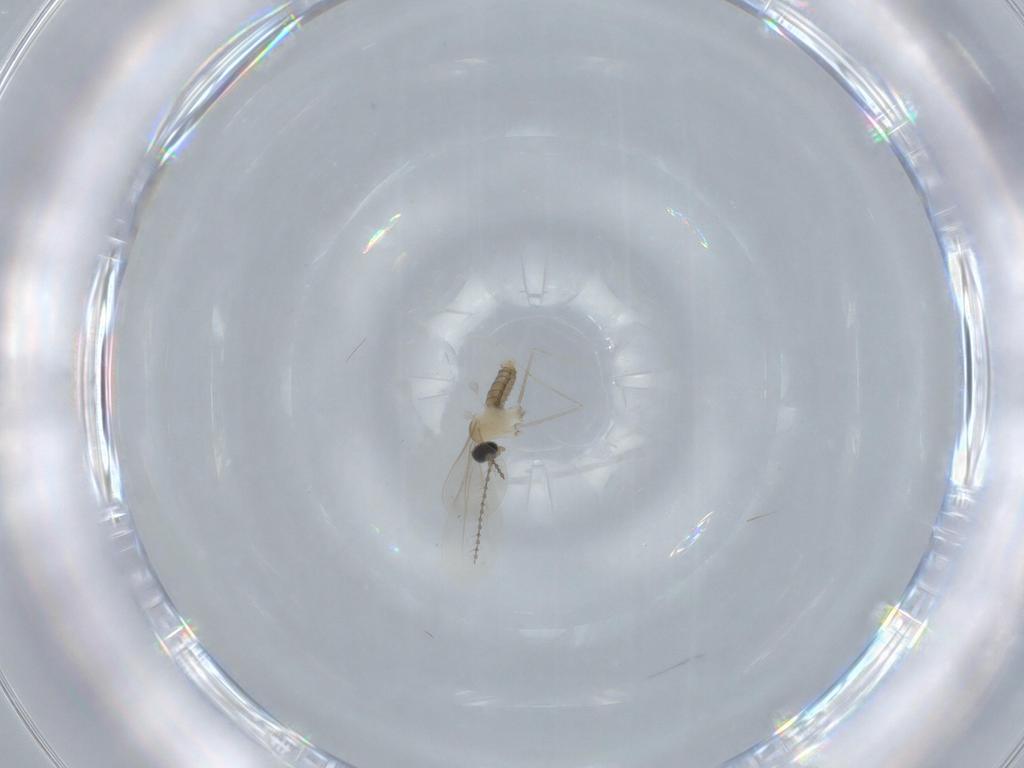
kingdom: Animalia
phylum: Arthropoda
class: Insecta
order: Diptera
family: Cecidomyiidae
